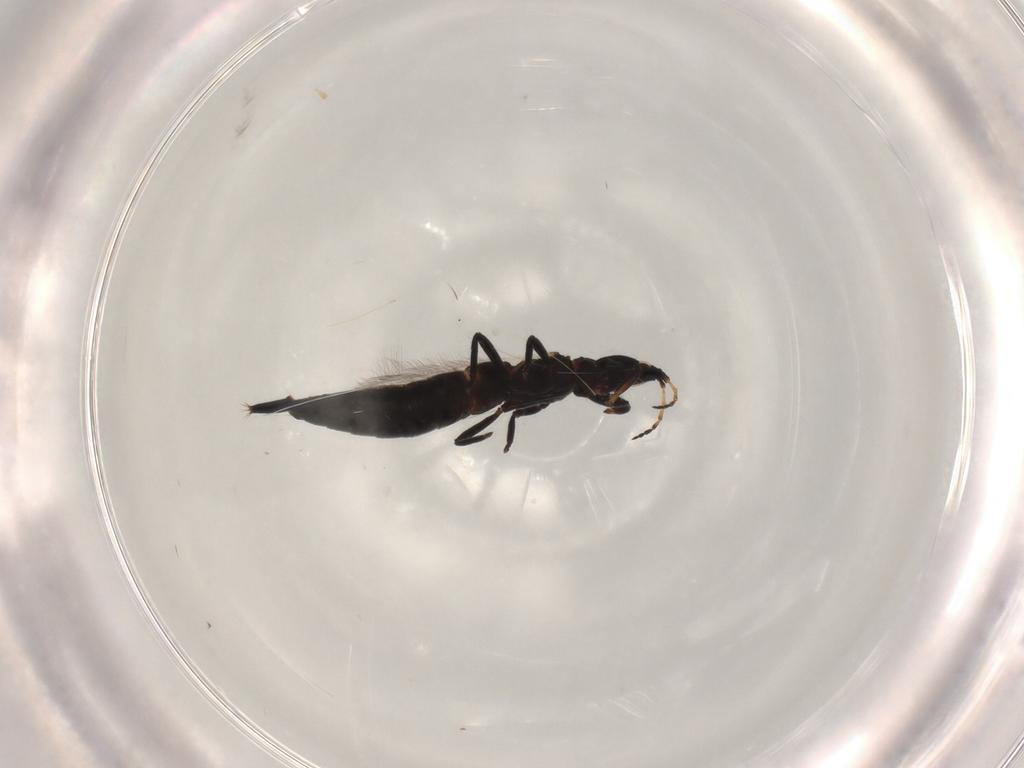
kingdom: Animalia
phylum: Arthropoda
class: Insecta
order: Thysanoptera
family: Phlaeothripidae
